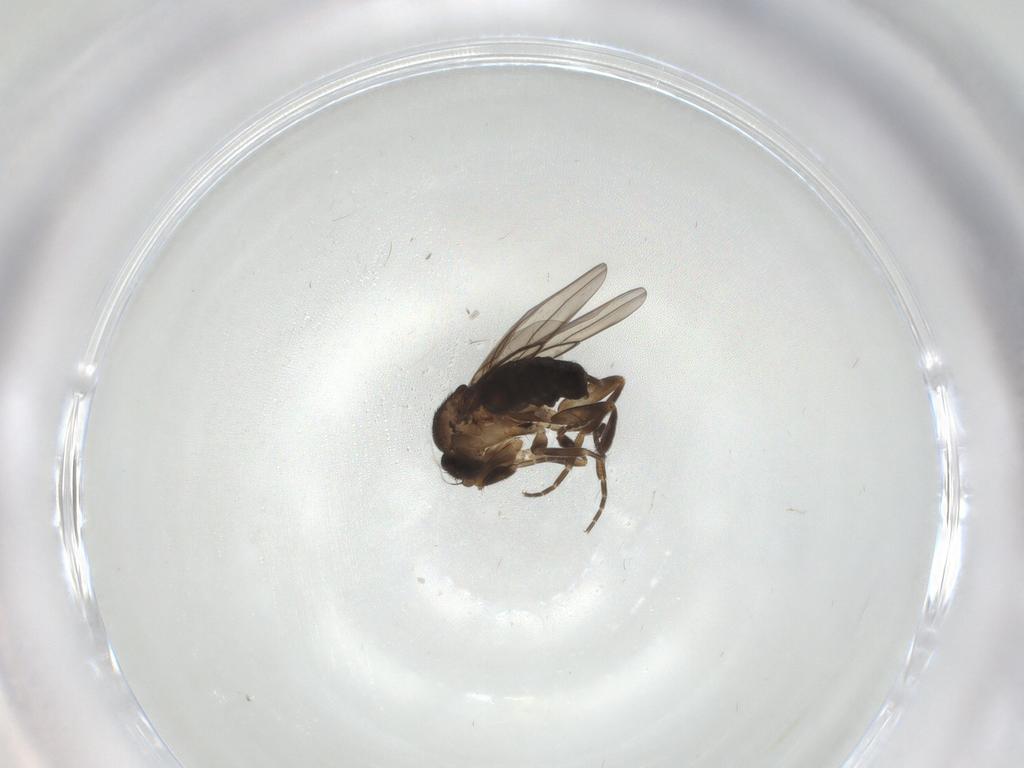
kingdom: Animalia
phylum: Arthropoda
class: Insecta
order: Diptera
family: Phoridae
